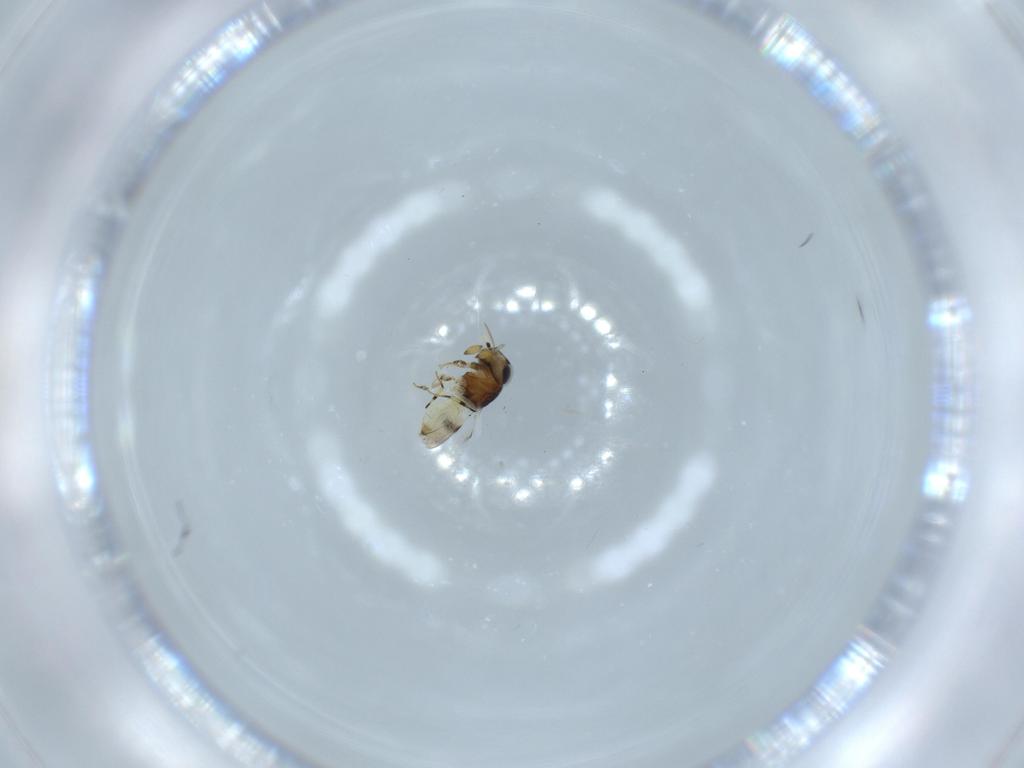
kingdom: Animalia
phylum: Arthropoda
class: Insecta
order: Hymenoptera
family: Scelionidae
